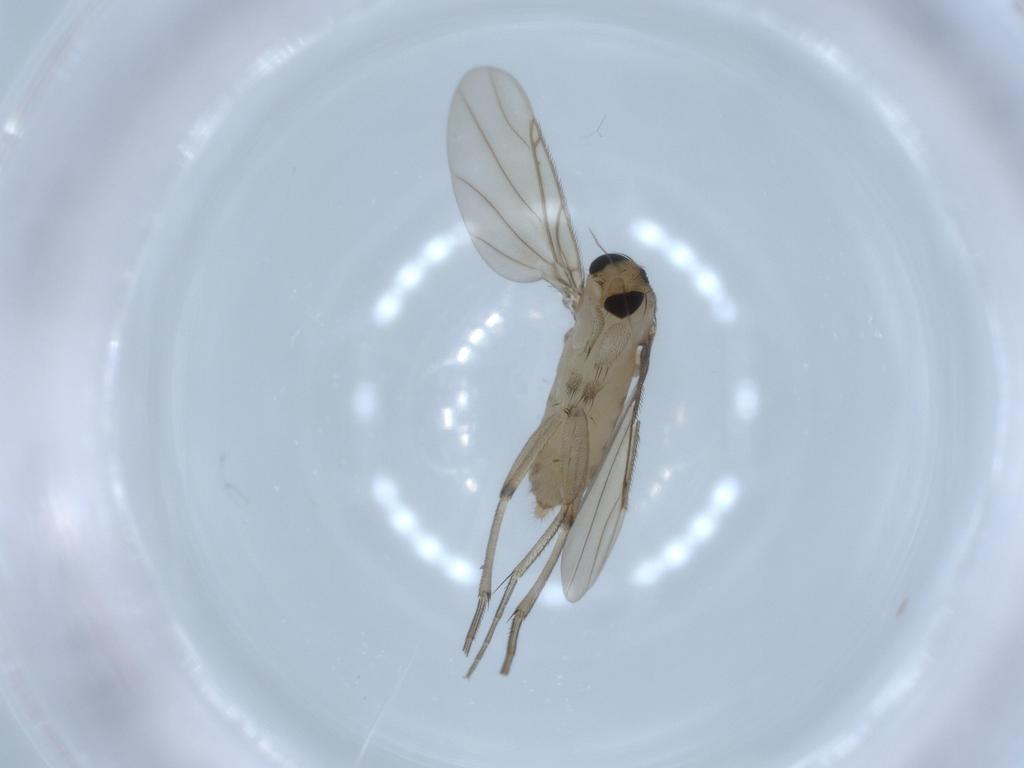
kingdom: Animalia
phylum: Arthropoda
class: Insecta
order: Diptera
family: Phoridae
